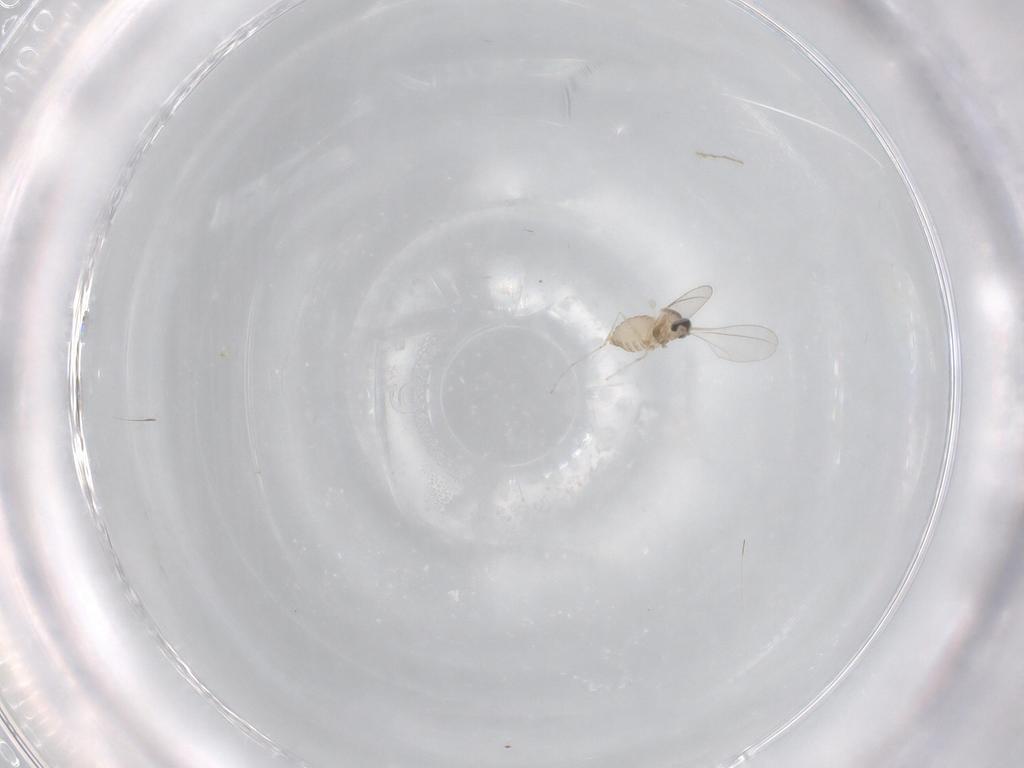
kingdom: Animalia
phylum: Arthropoda
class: Insecta
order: Diptera
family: Cecidomyiidae
